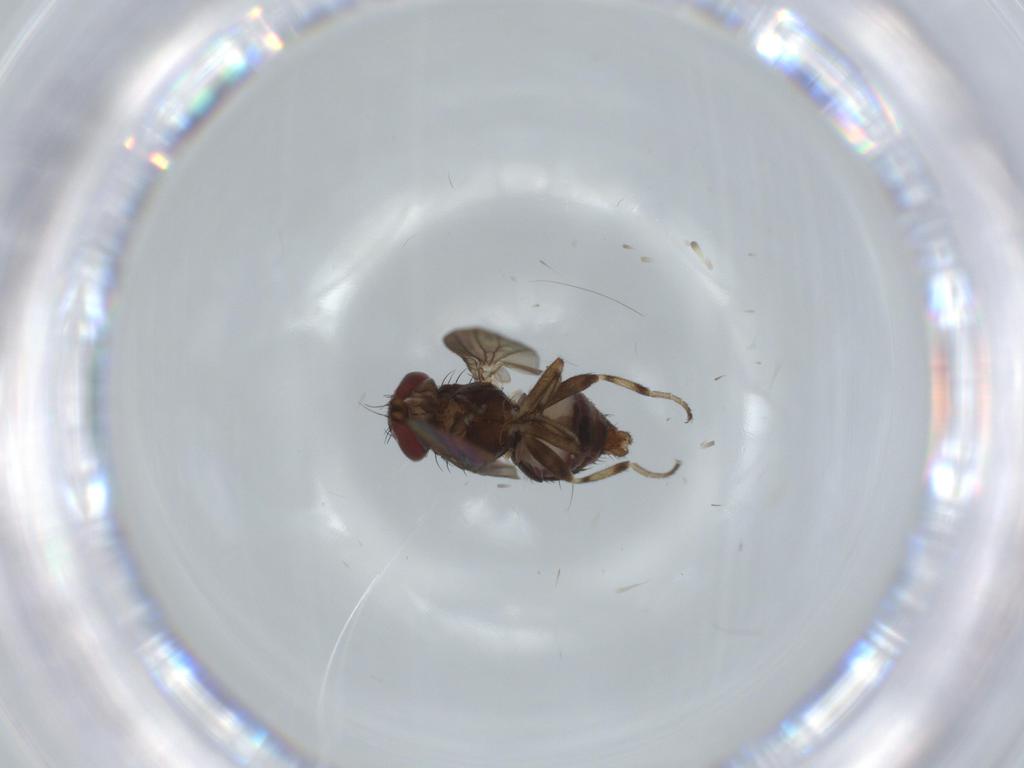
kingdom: Animalia
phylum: Arthropoda
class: Insecta
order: Diptera
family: Heleomyzidae
